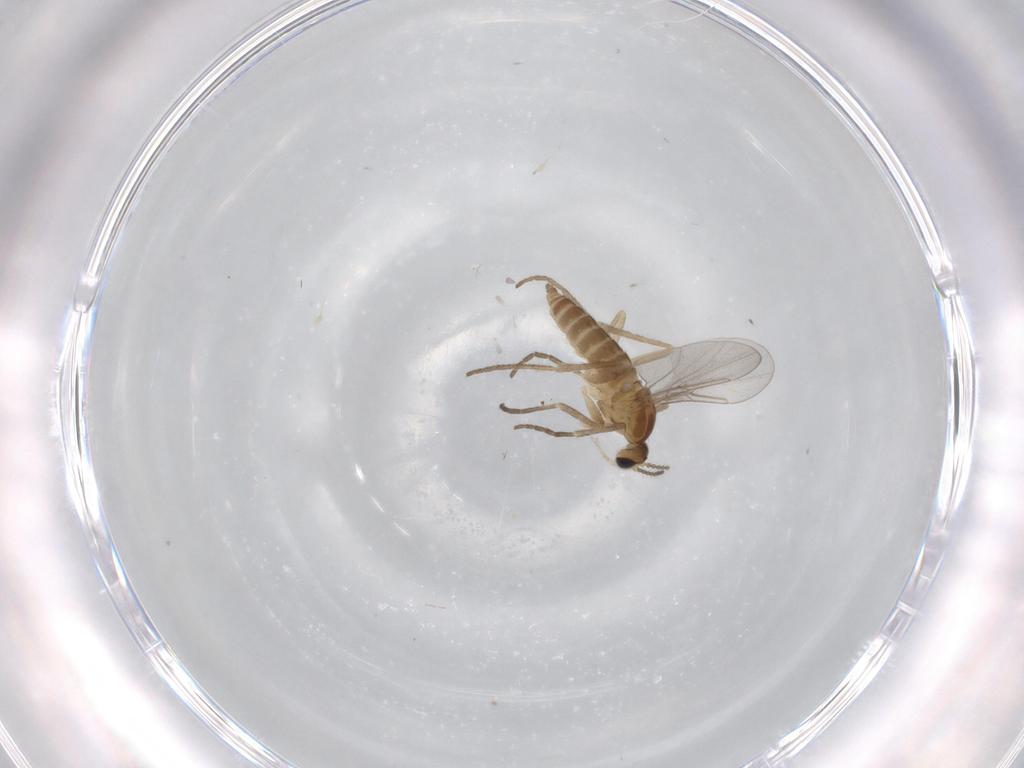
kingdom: Animalia
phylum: Arthropoda
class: Insecta
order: Diptera
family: Cecidomyiidae
